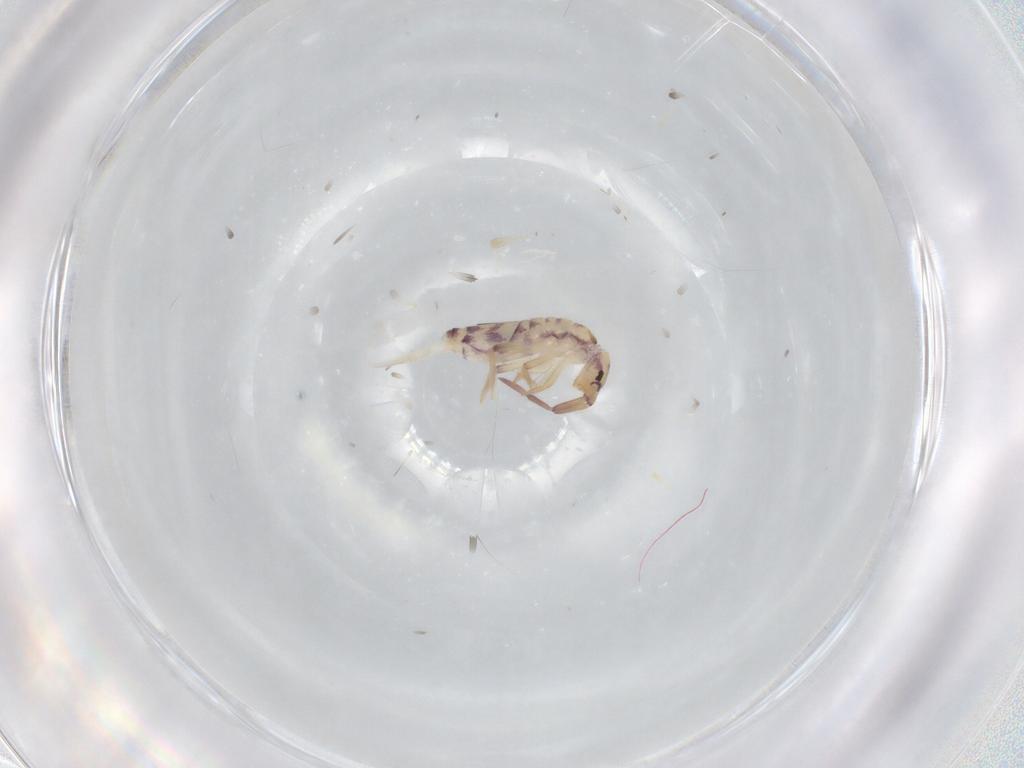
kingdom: Animalia
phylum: Arthropoda
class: Collembola
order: Entomobryomorpha
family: Entomobryidae
